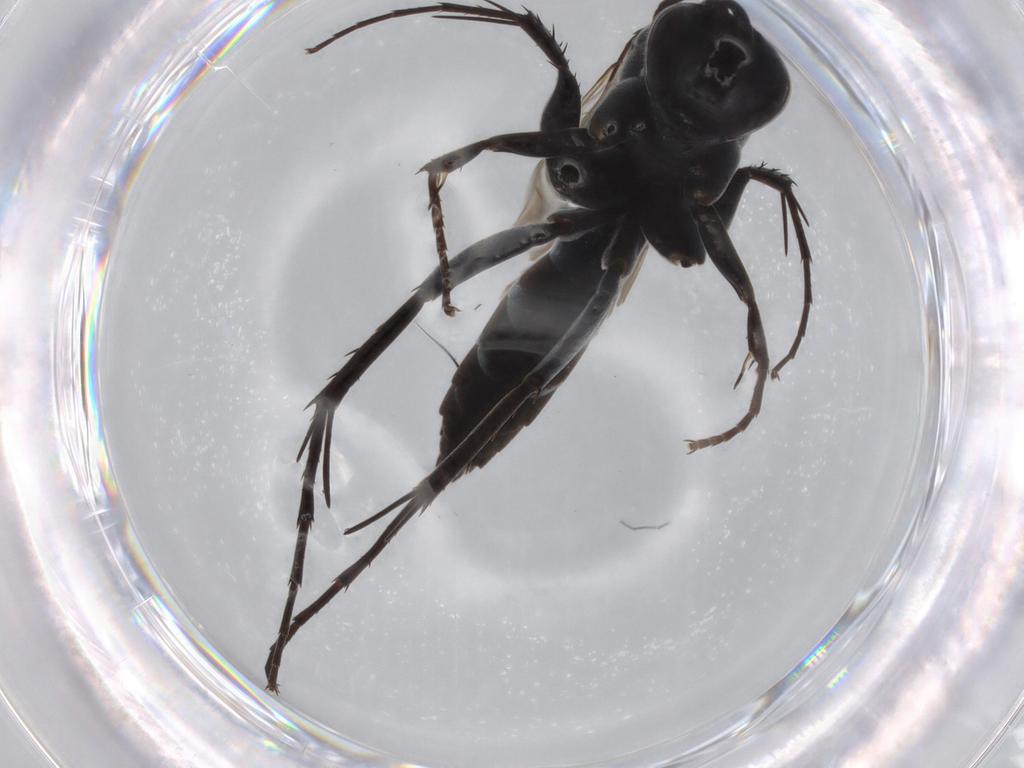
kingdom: Animalia
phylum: Arthropoda
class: Insecta
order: Hymenoptera
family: Pompilidae
